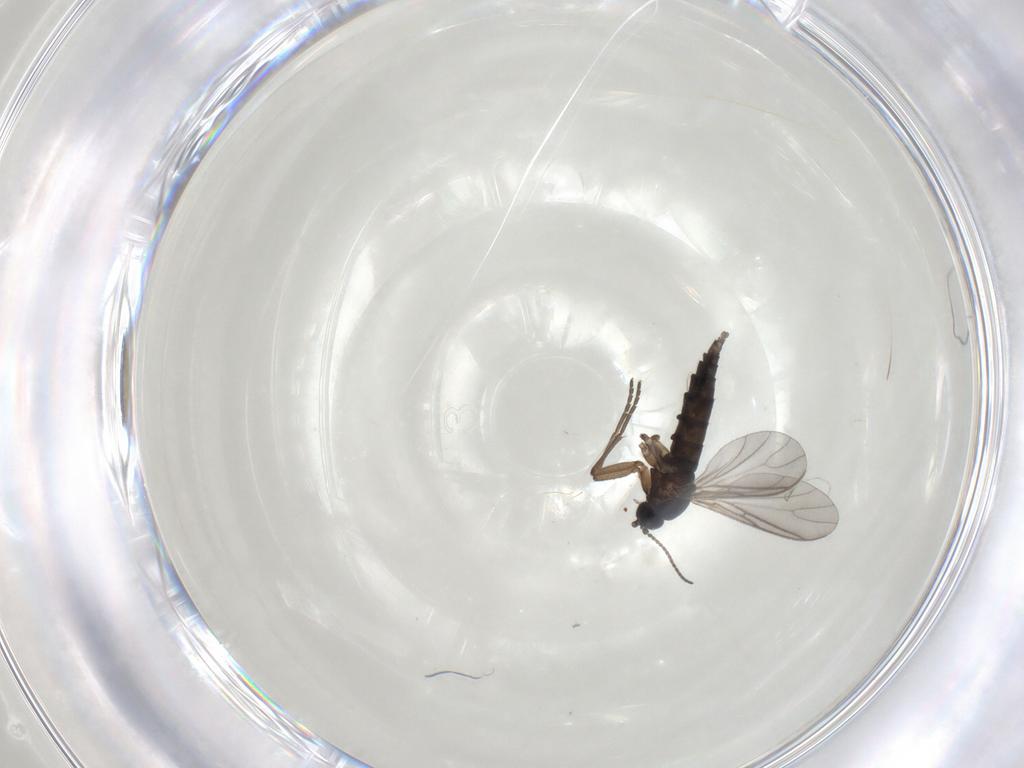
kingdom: Animalia
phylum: Arthropoda
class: Insecta
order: Diptera
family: Sciaridae
